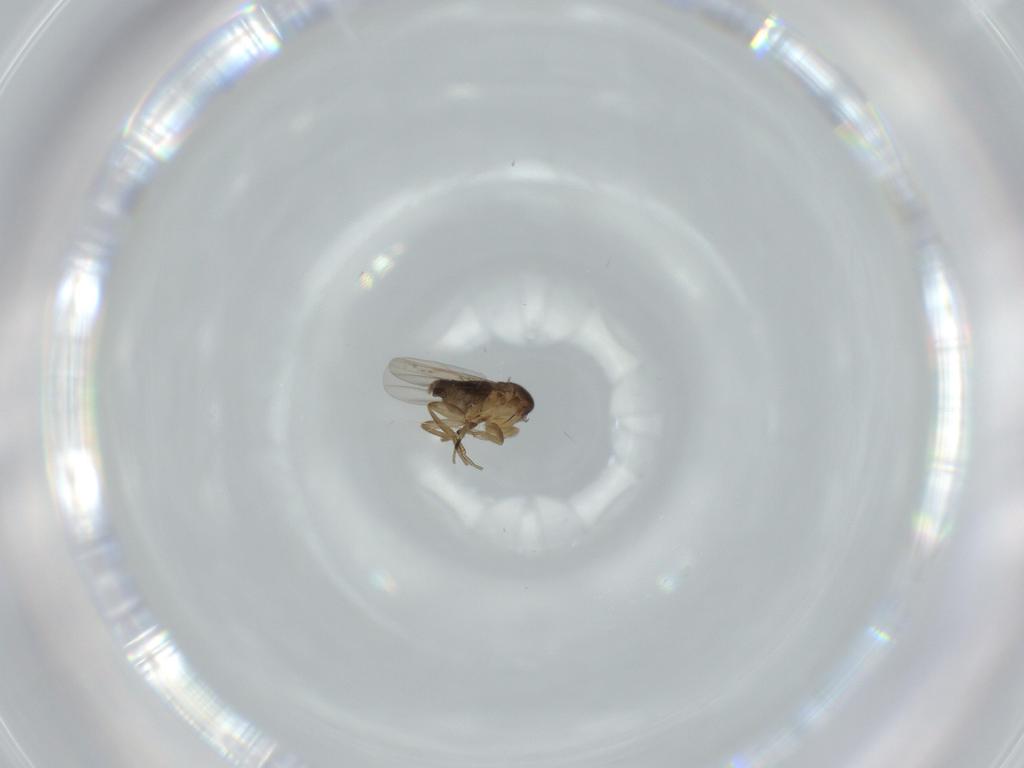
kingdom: Animalia
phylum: Arthropoda
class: Insecta
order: Diptera
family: Phoridae
